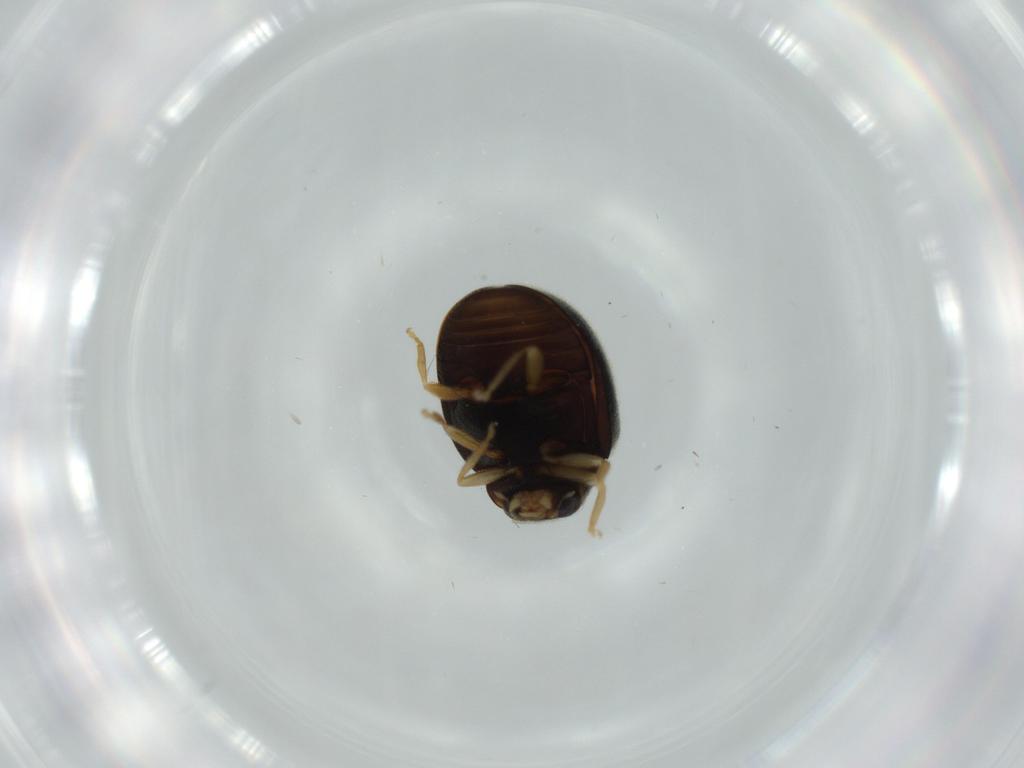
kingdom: Animalia
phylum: Arthropoda
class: Insecta
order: Coleoptera
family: Coccinellidae
